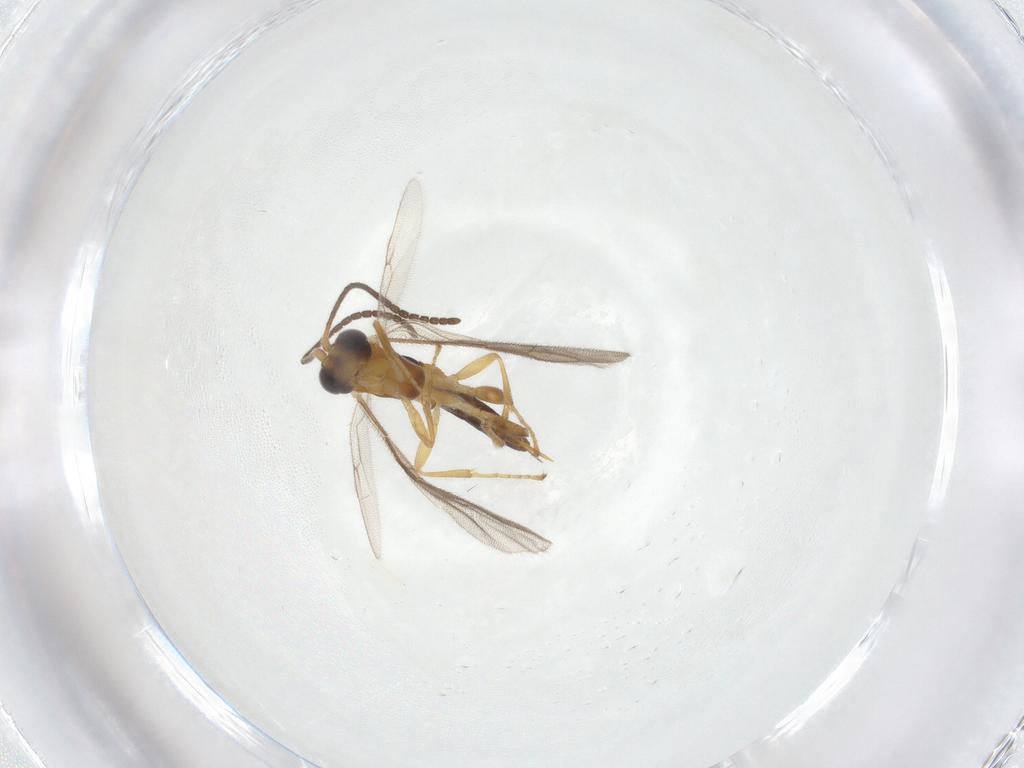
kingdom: Animalia
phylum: Arthropoda
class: Insecta
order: Hymenoptera
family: Ichneumonidae
